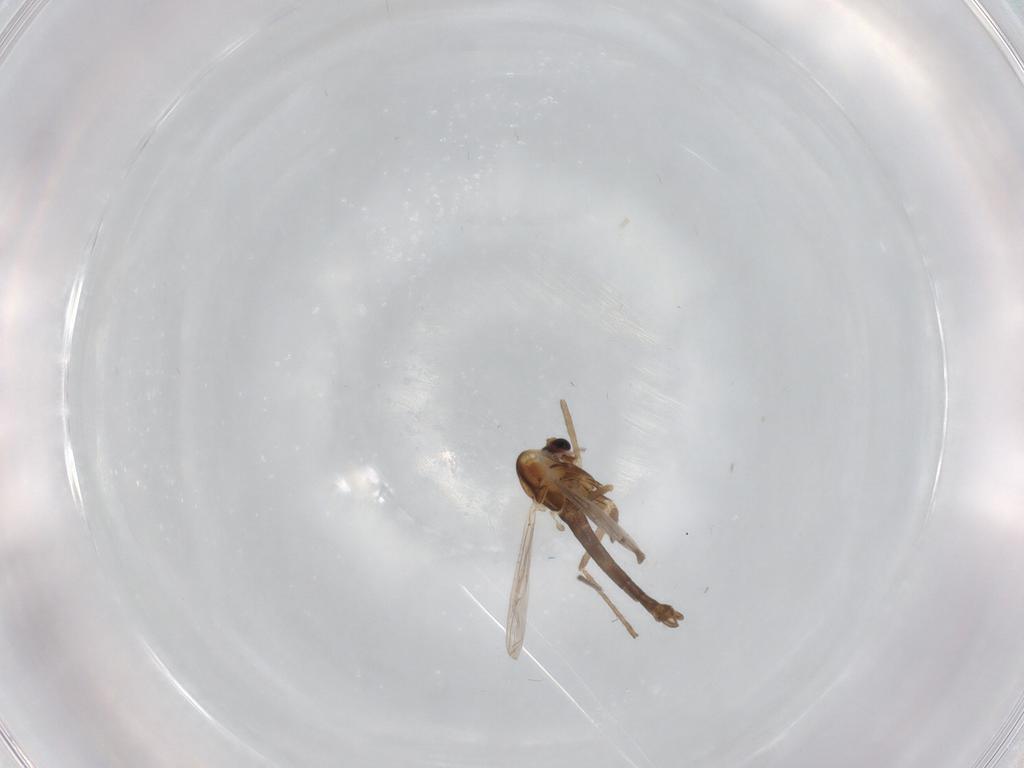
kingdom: Animalia
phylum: Arthropoda
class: Insecta
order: Diptera
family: Chironomidae
